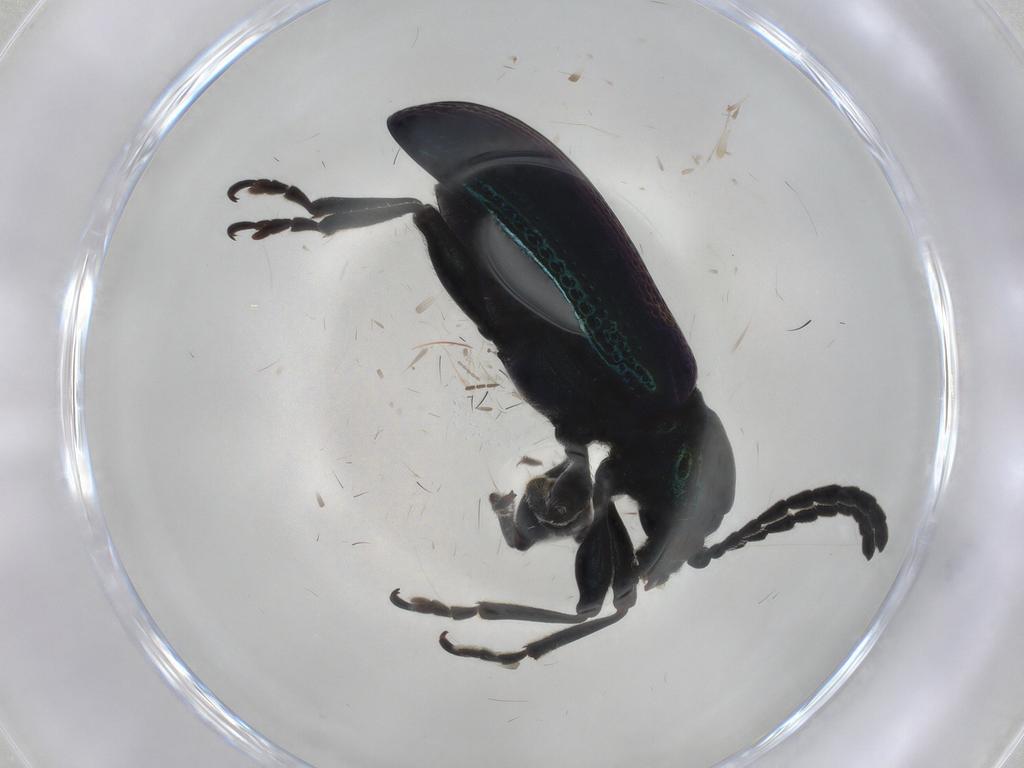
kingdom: Animalia
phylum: Arthropoda
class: Insecta
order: Coleoptera
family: Chrysomelidae
